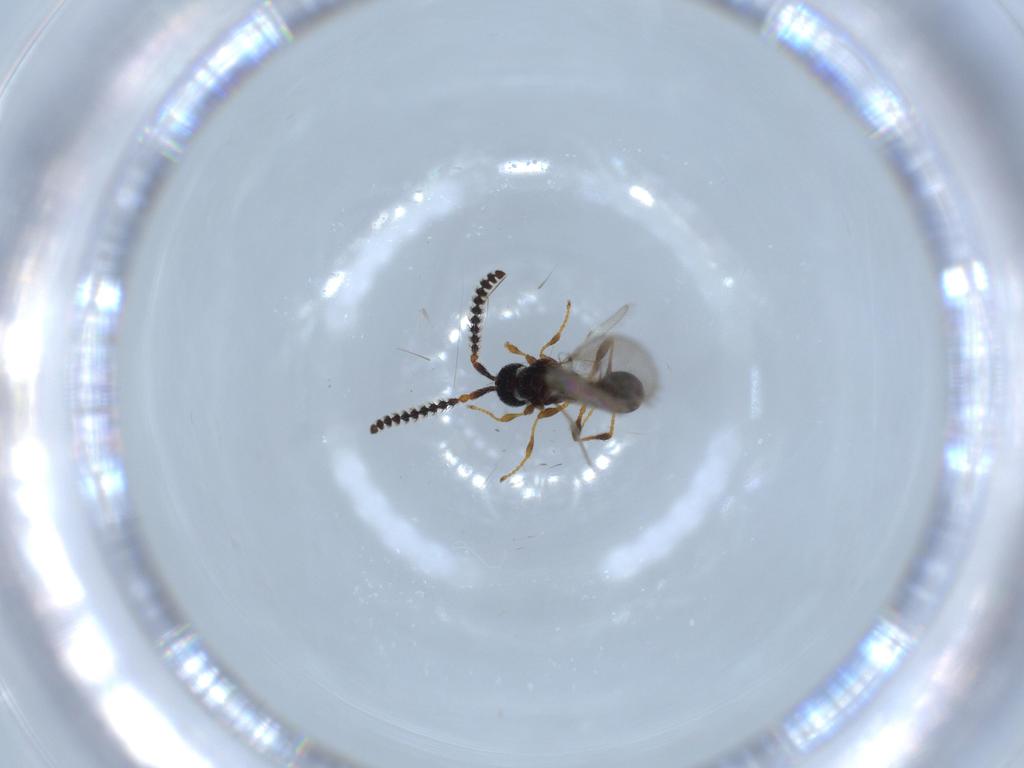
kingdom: Animalia
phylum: Arthropoda
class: Insecta
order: Hymenoptera
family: Diapriidae
